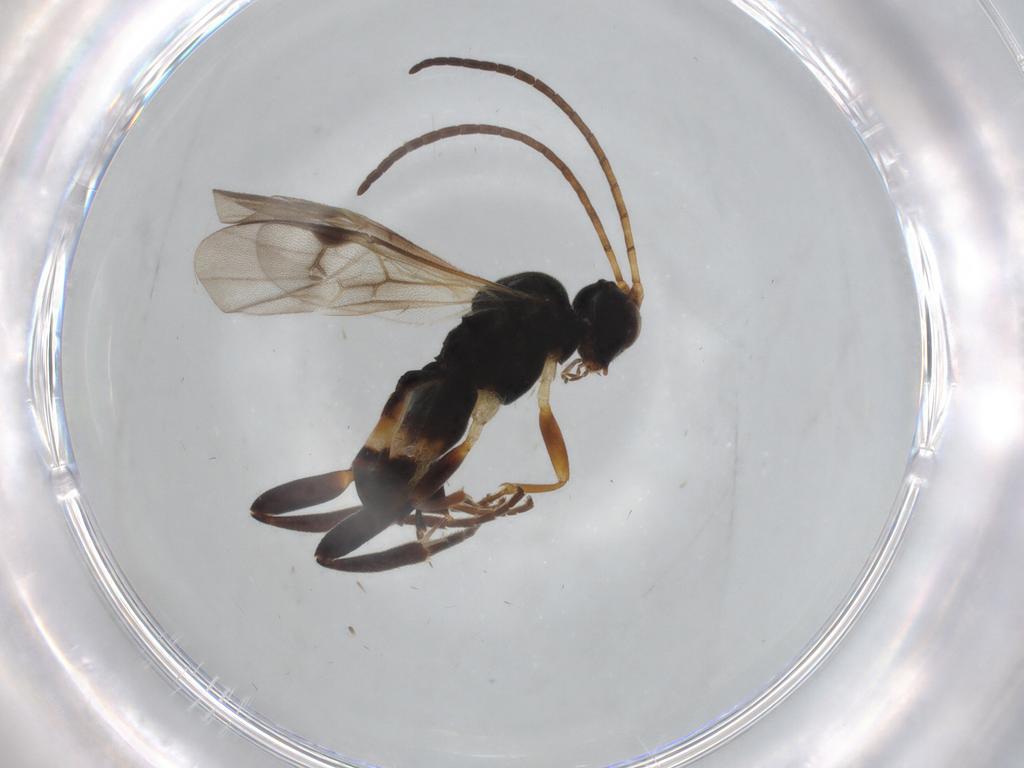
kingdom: Animalia
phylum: Arthropoda
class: Insecta
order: Hymenoptera
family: Braconidae
